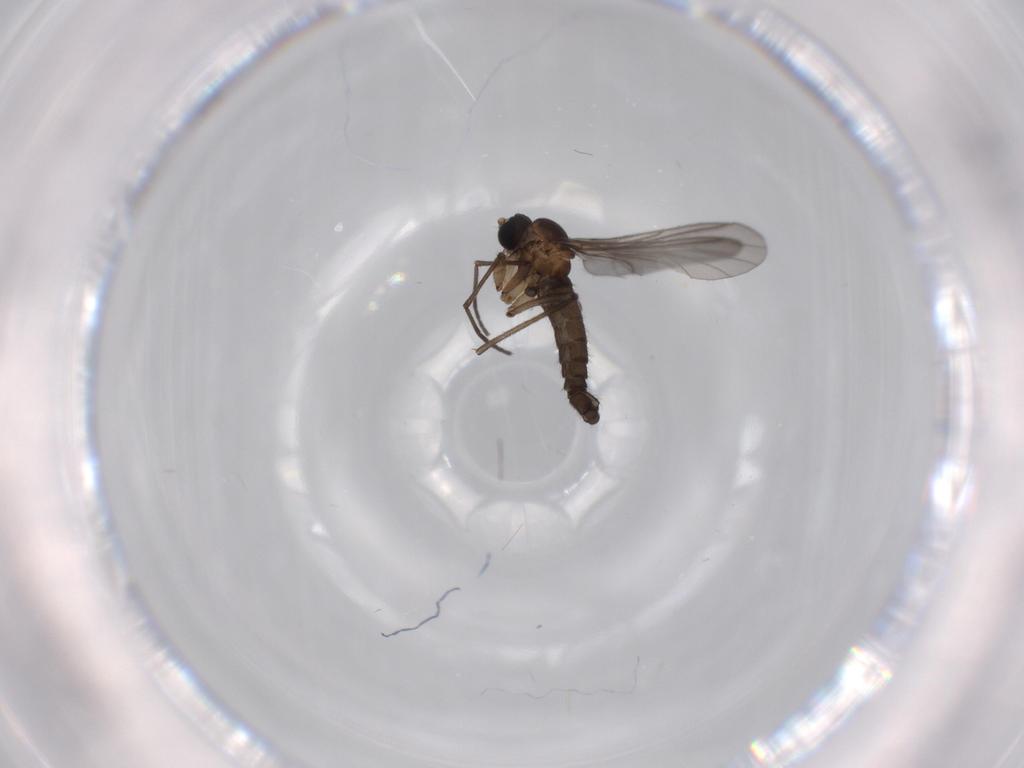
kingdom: Animalia
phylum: Arthropoda
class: Insecta
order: Diptera
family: Sciaridae
